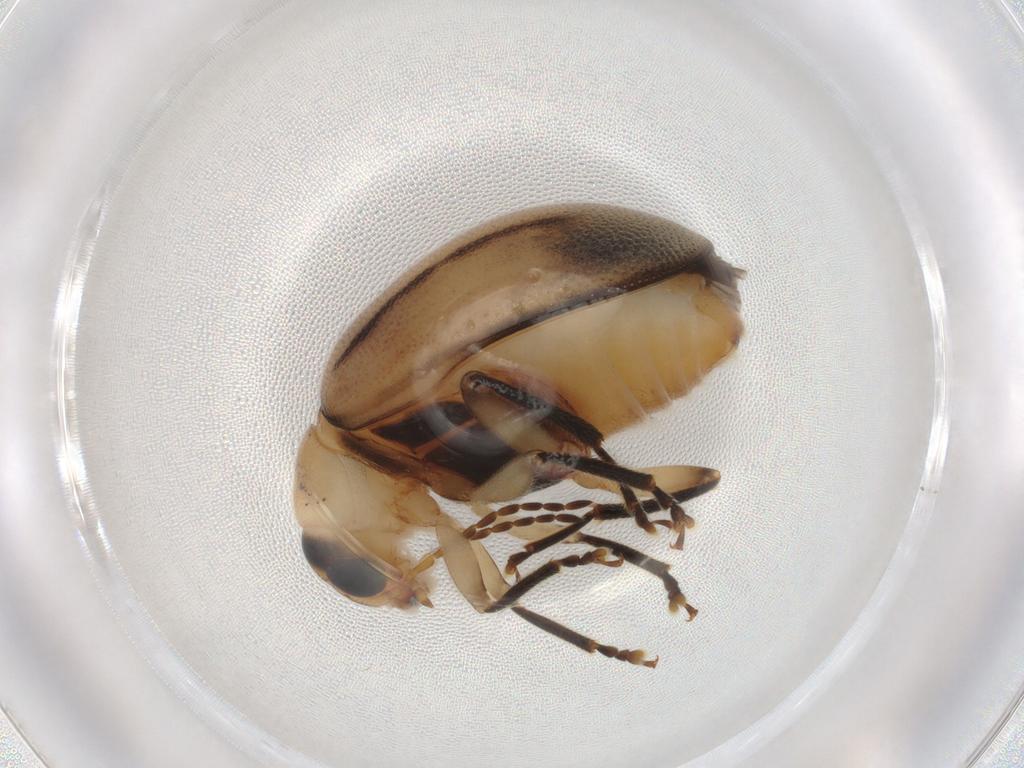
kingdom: Animalia
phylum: Arthropoda
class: Insecta
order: Coleoptera
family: Chrysomelidae
